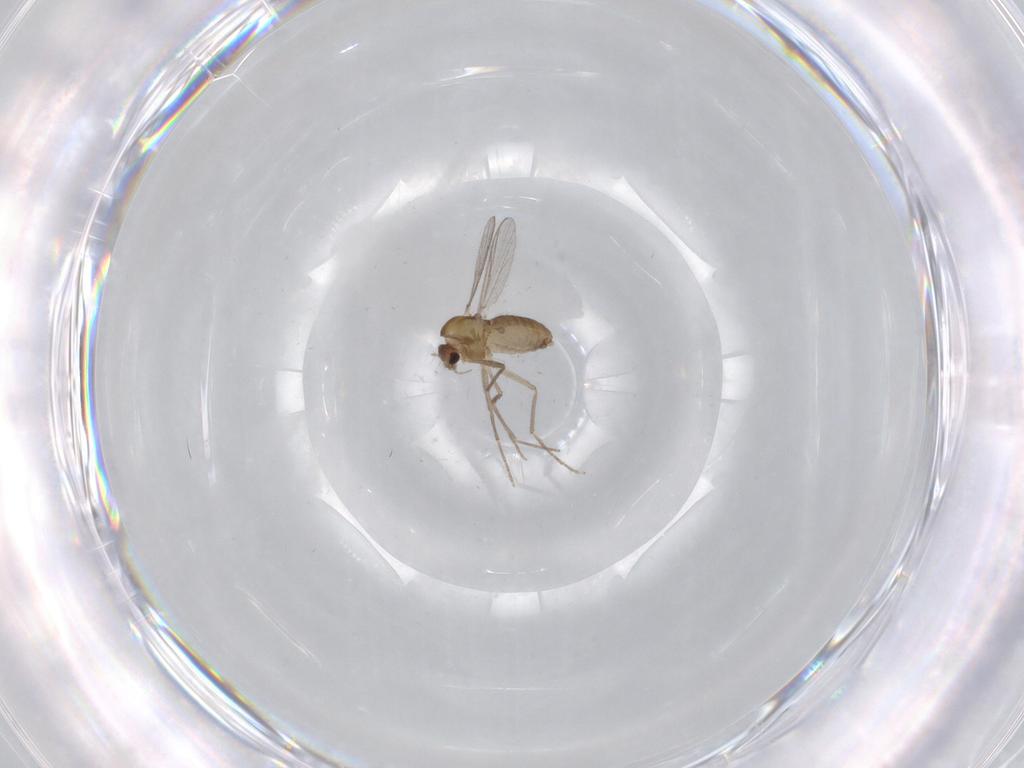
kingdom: Animalia
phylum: Arthropoda
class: Insecta
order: Diptera
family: Chironomidae
